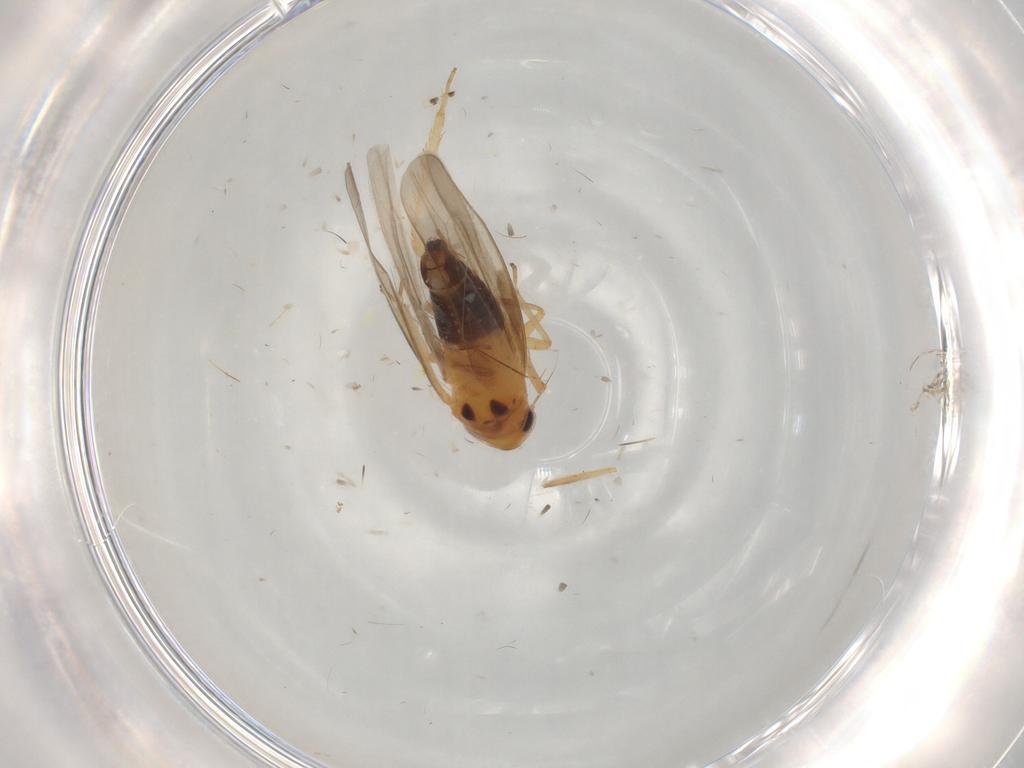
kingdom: Animalia
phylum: Arthropoda
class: Insecta
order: Hemiptera
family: Cicadellidae
